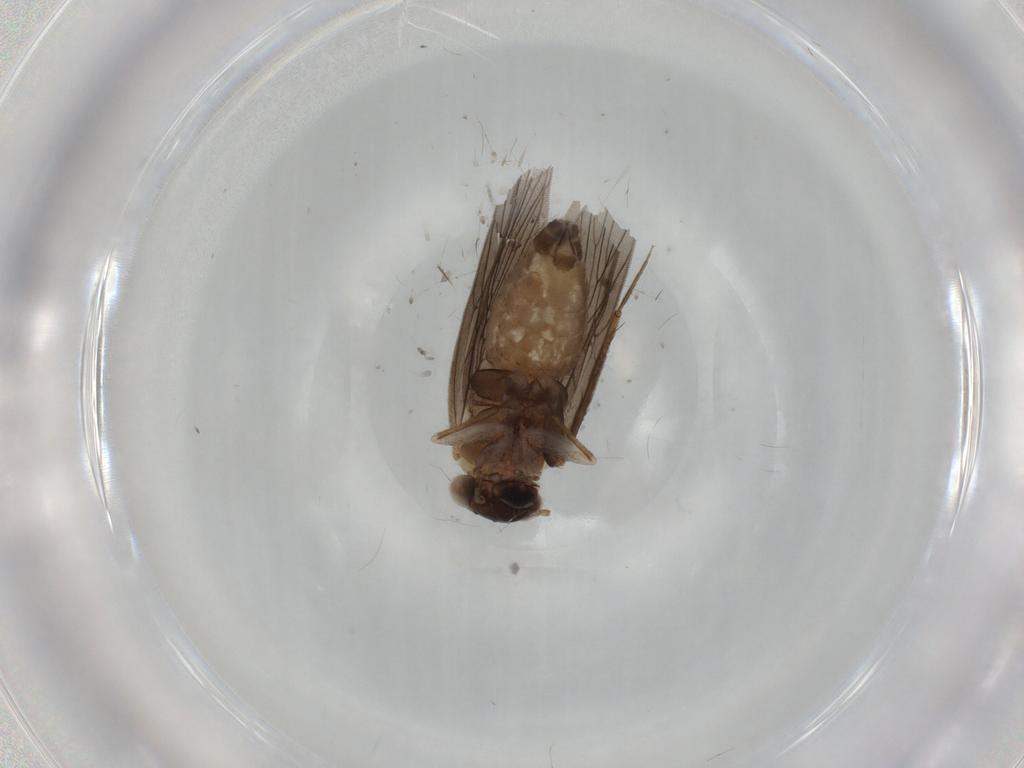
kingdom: Animalia
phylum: Arthropoda
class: Insecta
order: Psocodea
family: Lepidopsocidae
